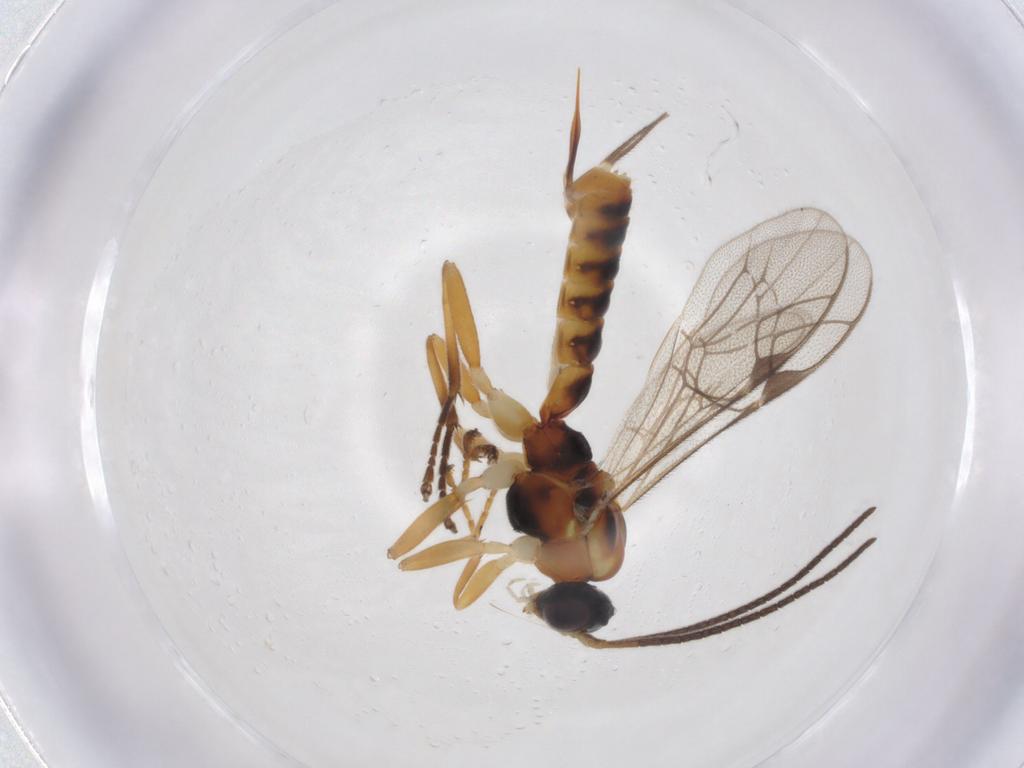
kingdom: Animalia
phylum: Arthropoda
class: Insecta
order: Hymenoptera
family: Ichneumonidae
